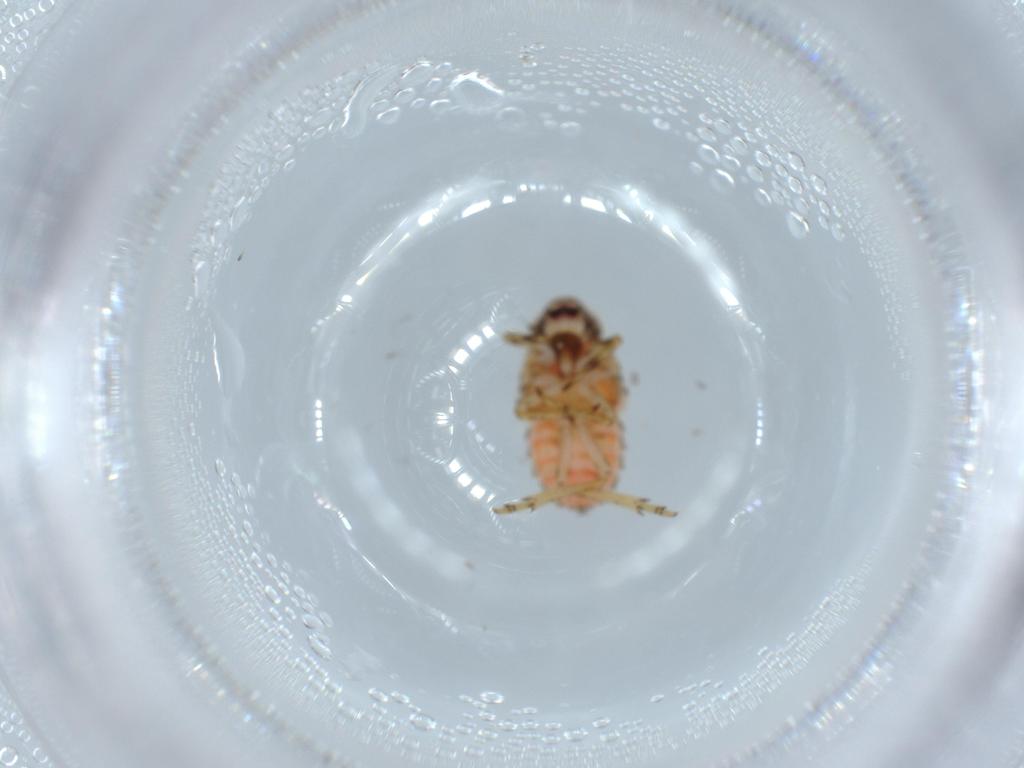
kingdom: Animalia
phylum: Arthropoda
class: Insecta
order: Hemiptera
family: Issidae
